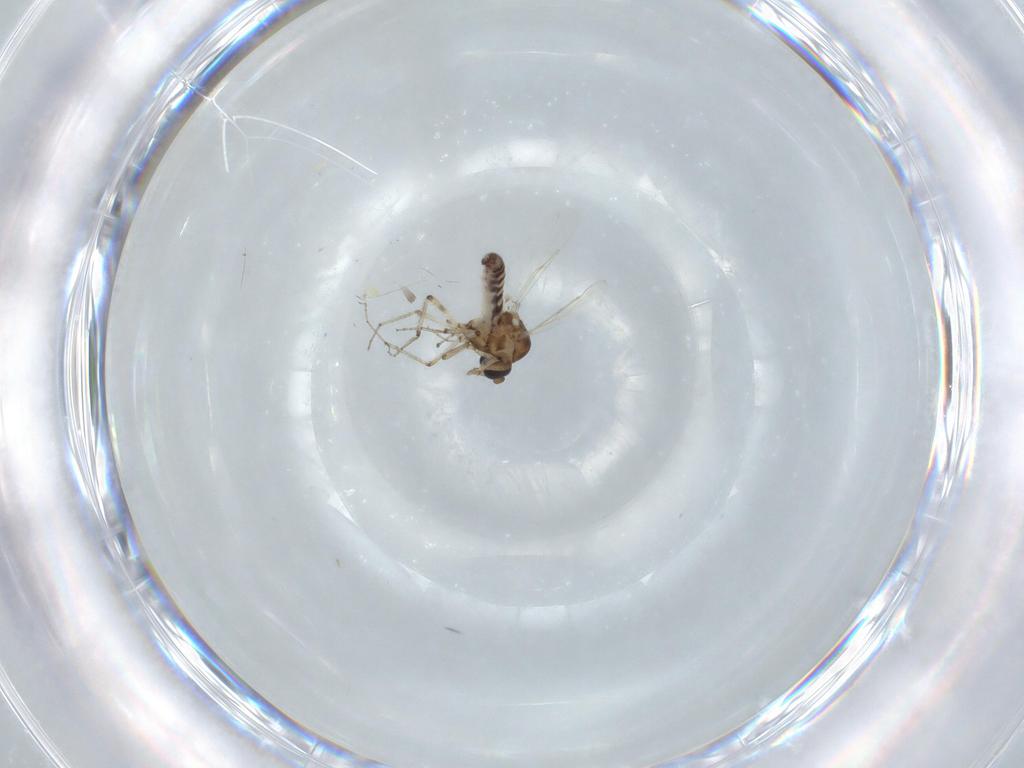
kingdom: Animalia
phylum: Arthropoda
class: Insecta
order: Diptera
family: Ceratopogonidae
